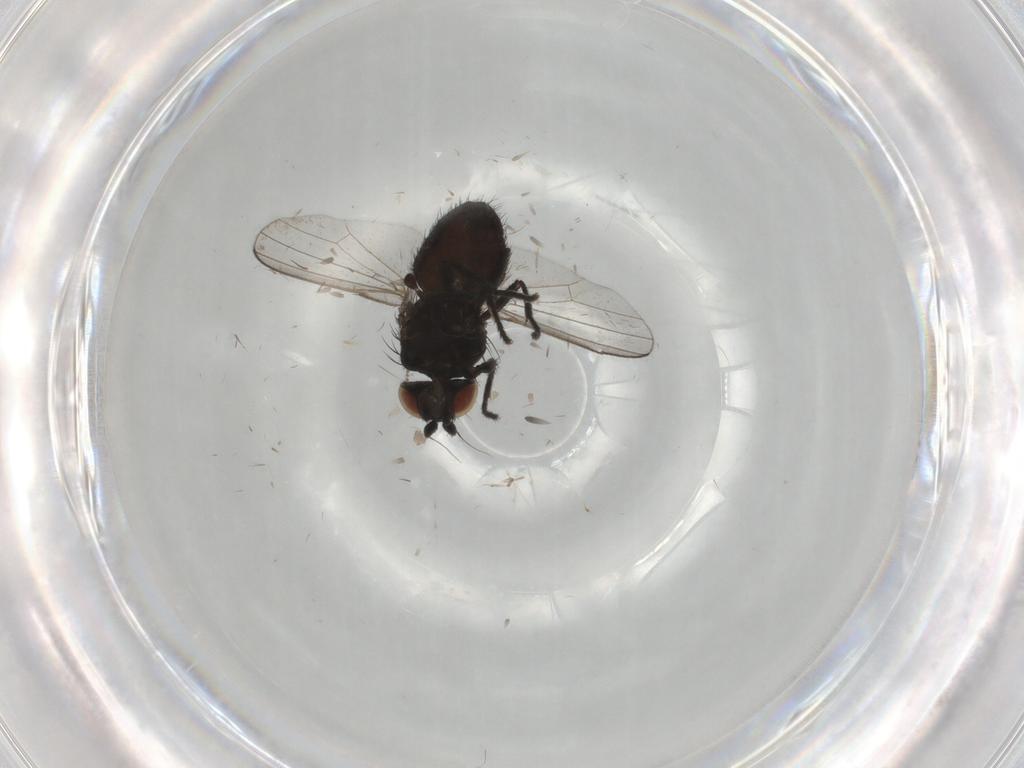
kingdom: Animalia
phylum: Arthropoda
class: Insecta
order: Diptera
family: Milichiidae
